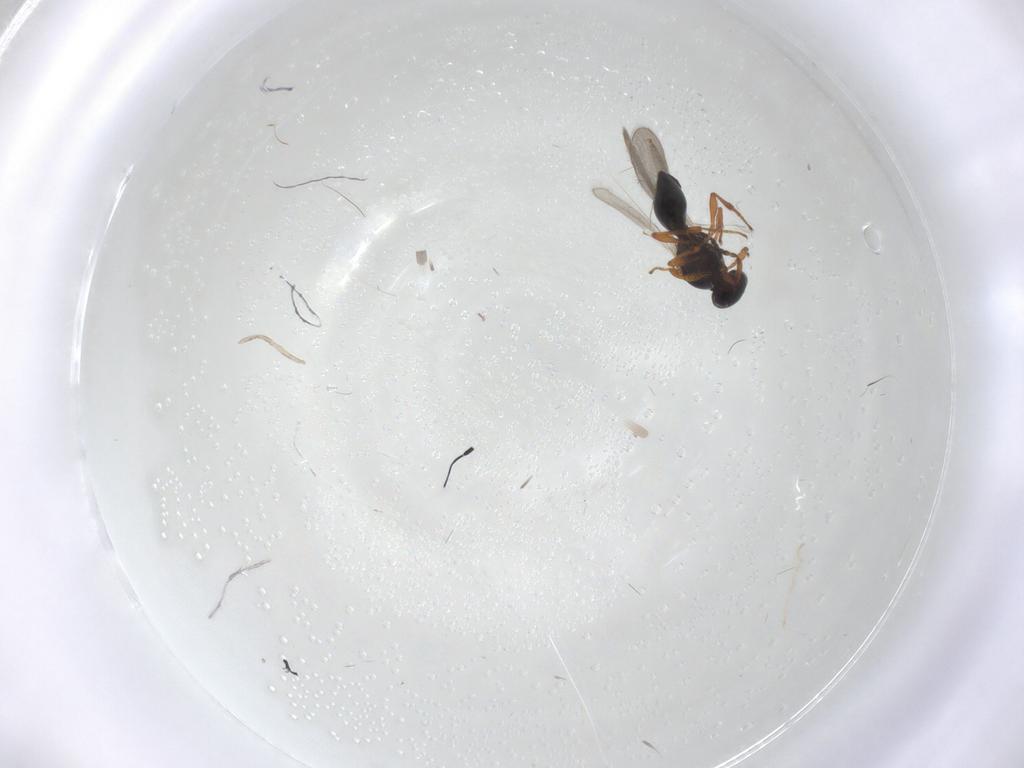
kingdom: Animalia
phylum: Arthropoda
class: Insecta
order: Hymenoptera
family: Platygastridae
